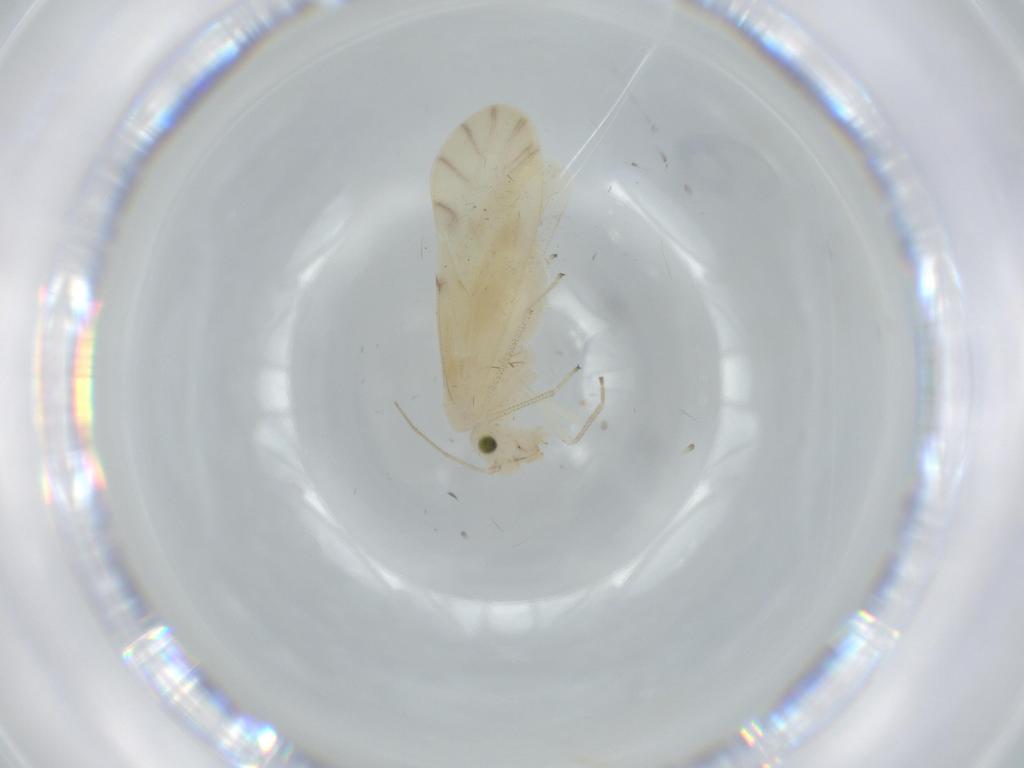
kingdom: Animalia
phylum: Arthropoda
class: Insecta
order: Psocodea
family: Caeciliusidae
